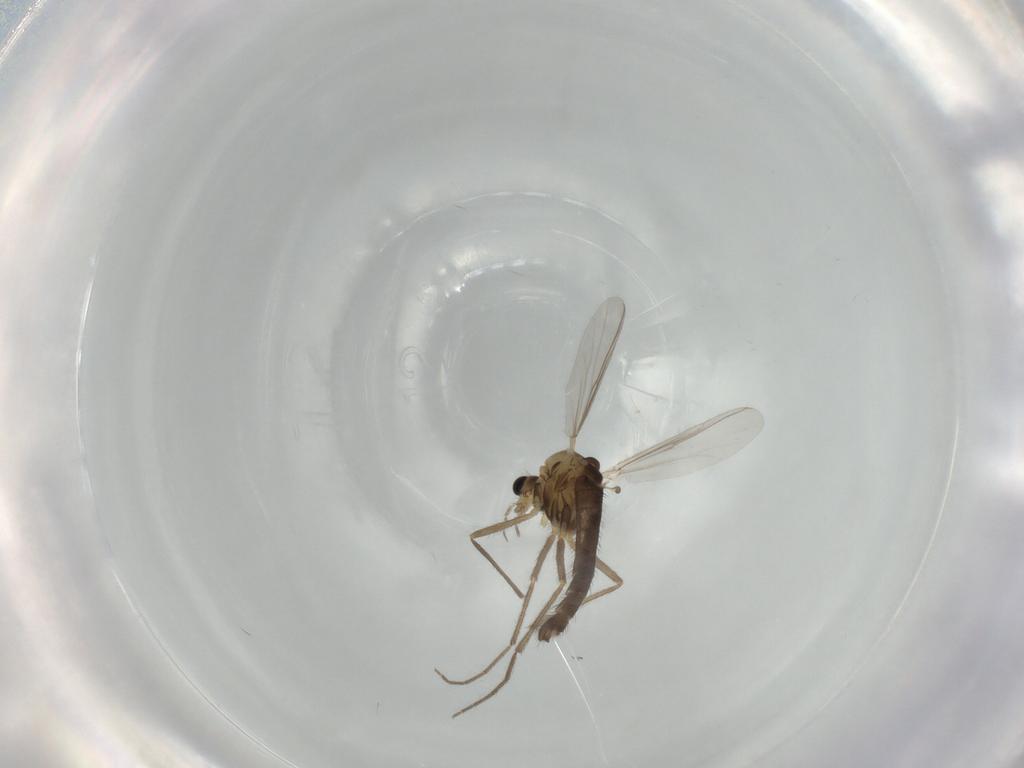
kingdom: Animalia
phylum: Arthropoda
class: Insecta
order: Diptera
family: Chironomidae
